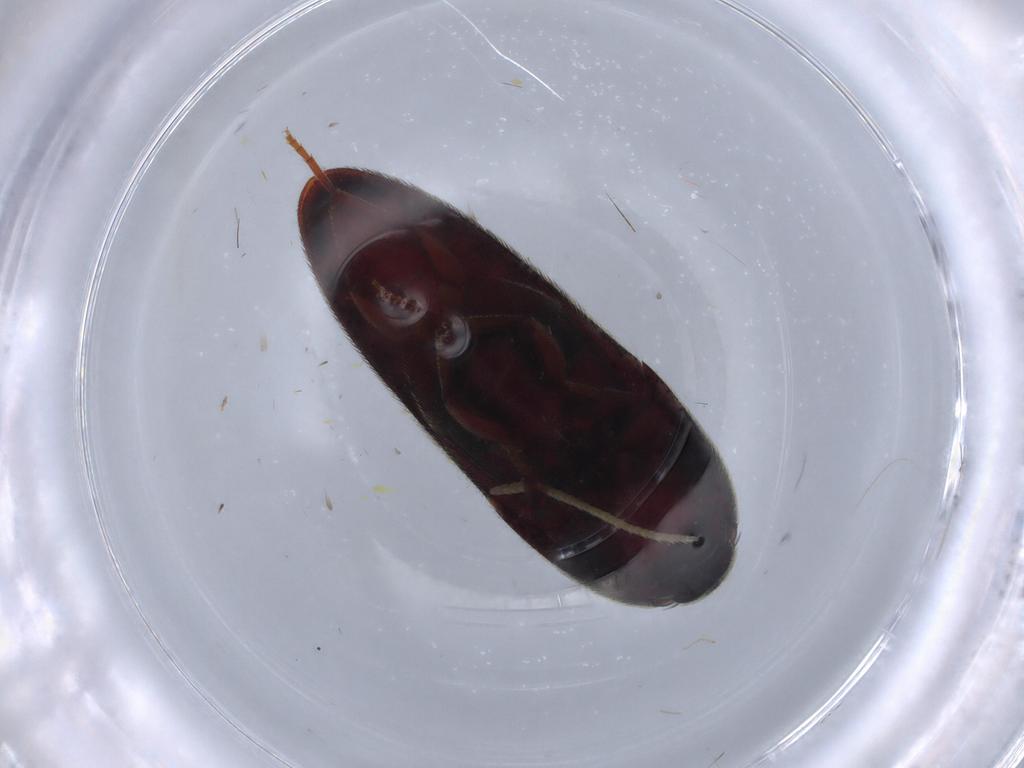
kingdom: Animalia
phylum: Arthropoda
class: Insecta
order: Coleoptera
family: Eucnemidae
